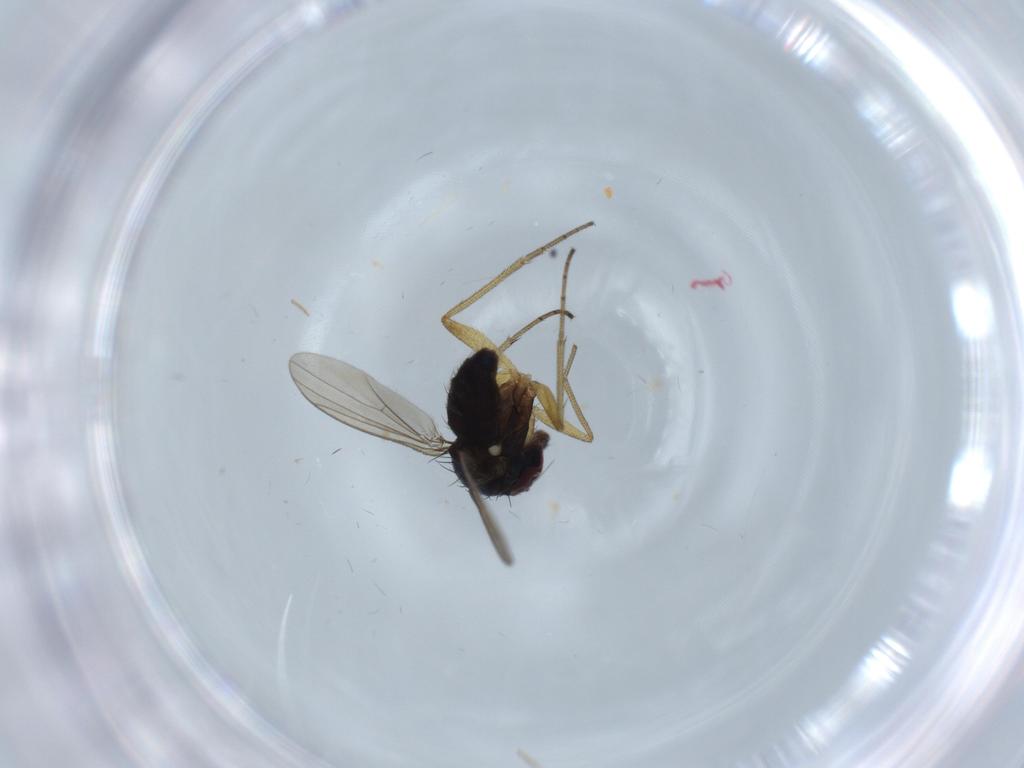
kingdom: Animalia
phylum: Arthropoda
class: Insecta
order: Diptera
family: Dolichopodidae
